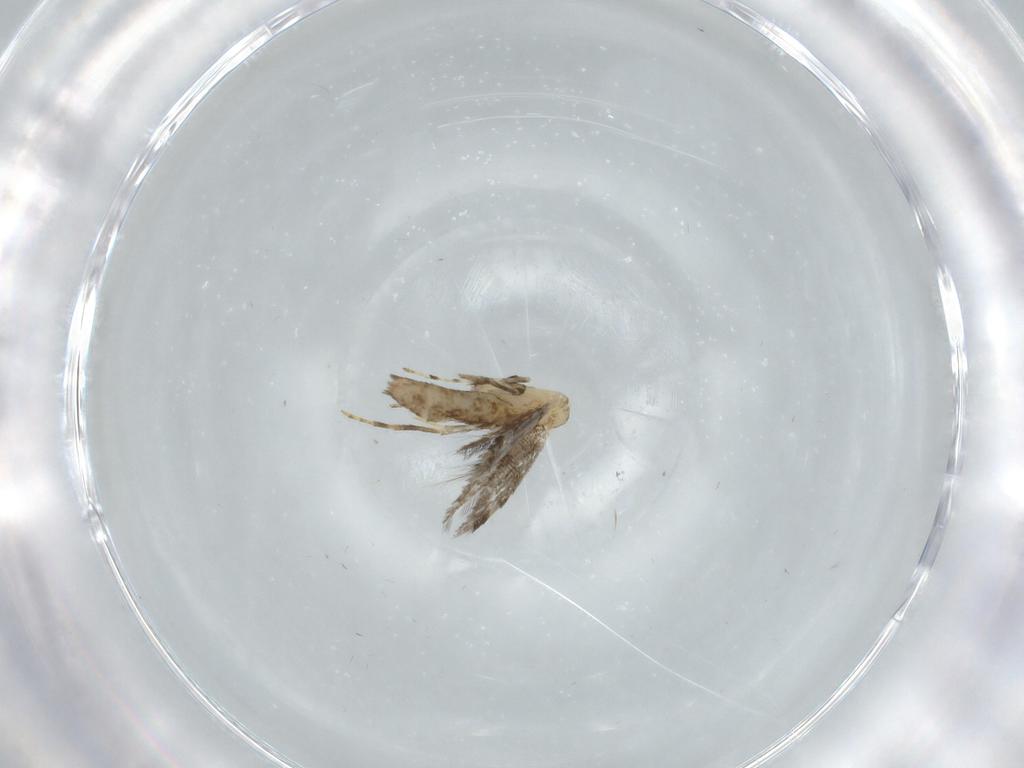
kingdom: Animalia
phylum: Arthropoda
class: Insecta
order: Lepidoptera
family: Gracillariidae
